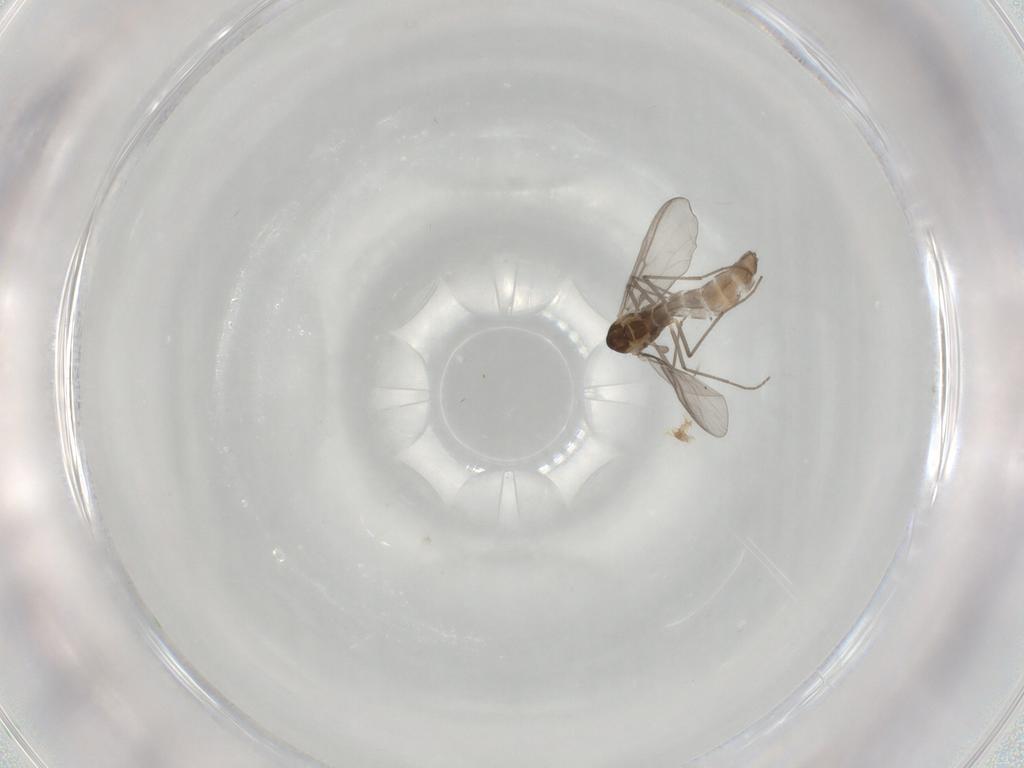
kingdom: Animalia
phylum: Arthropoda
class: Insecta
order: Diptera
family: Chironomidae
